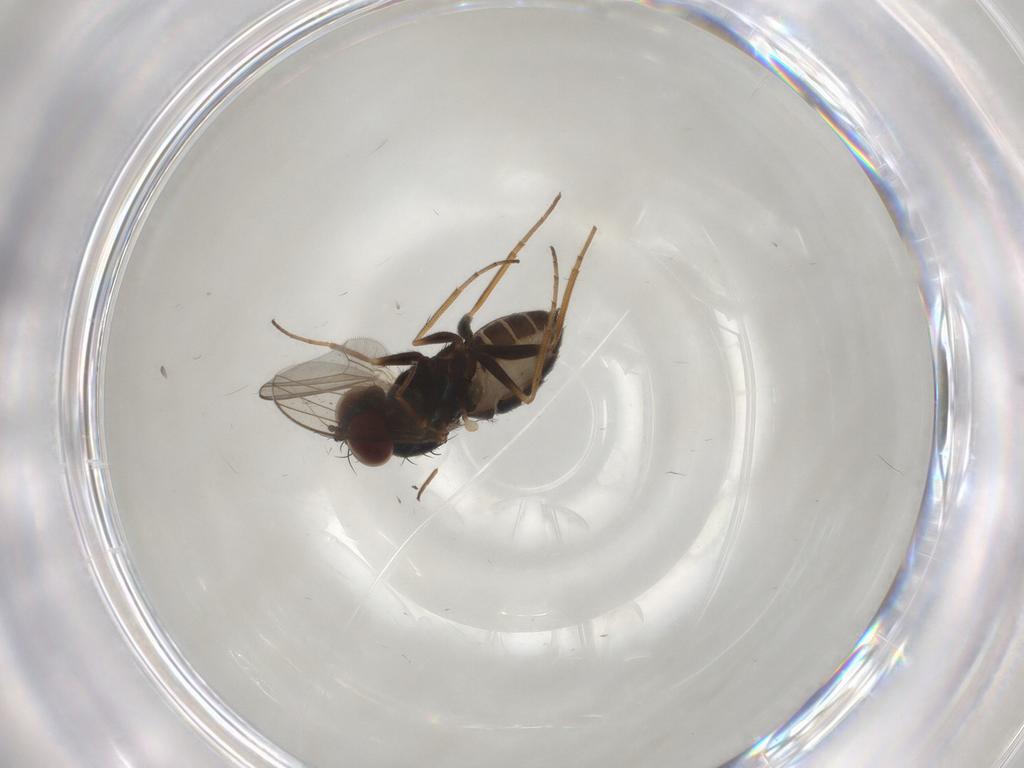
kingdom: Animalia
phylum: Arthropoda
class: Insecta
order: Diptera
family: Dolichopodidae
